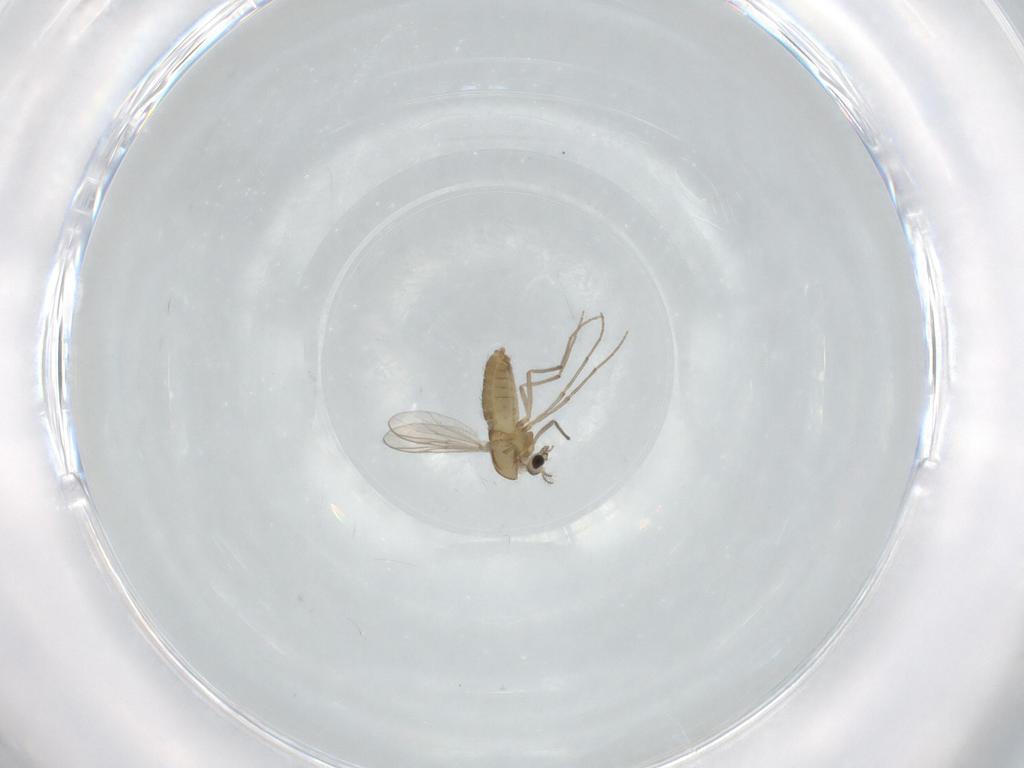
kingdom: Animalia
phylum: Arthropoda
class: Insecta
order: Diptera
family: Chironomidae
